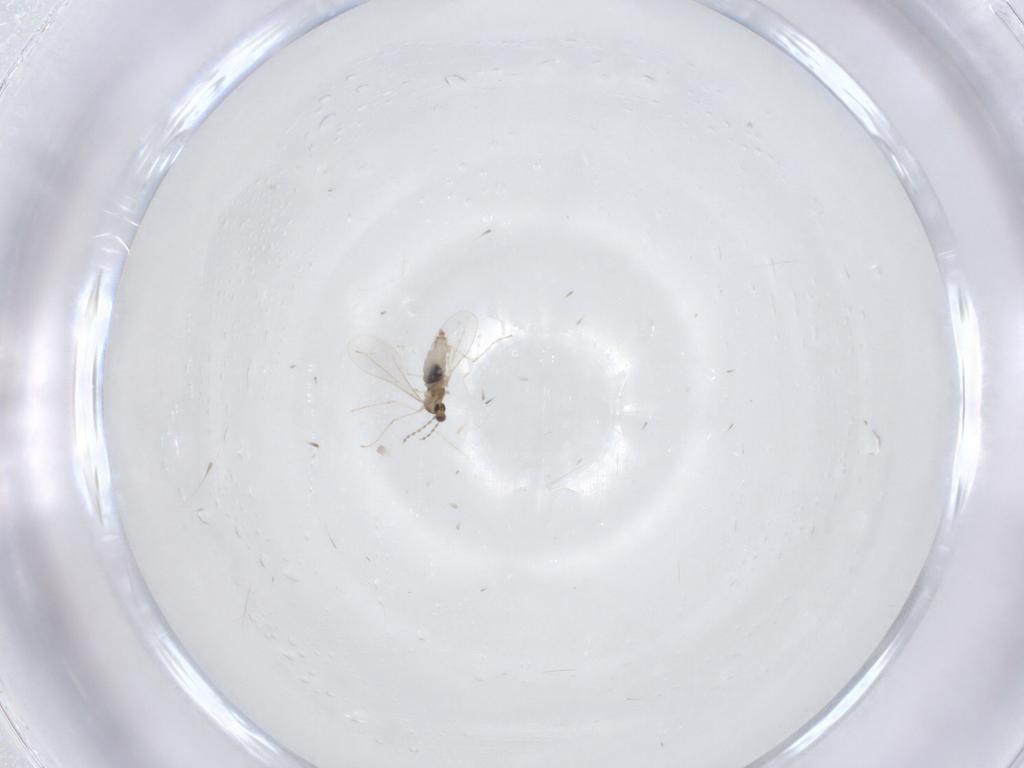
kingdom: Animalia
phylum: Arthropoda
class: Insecta
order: Diptera
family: Cecidomyiidae
